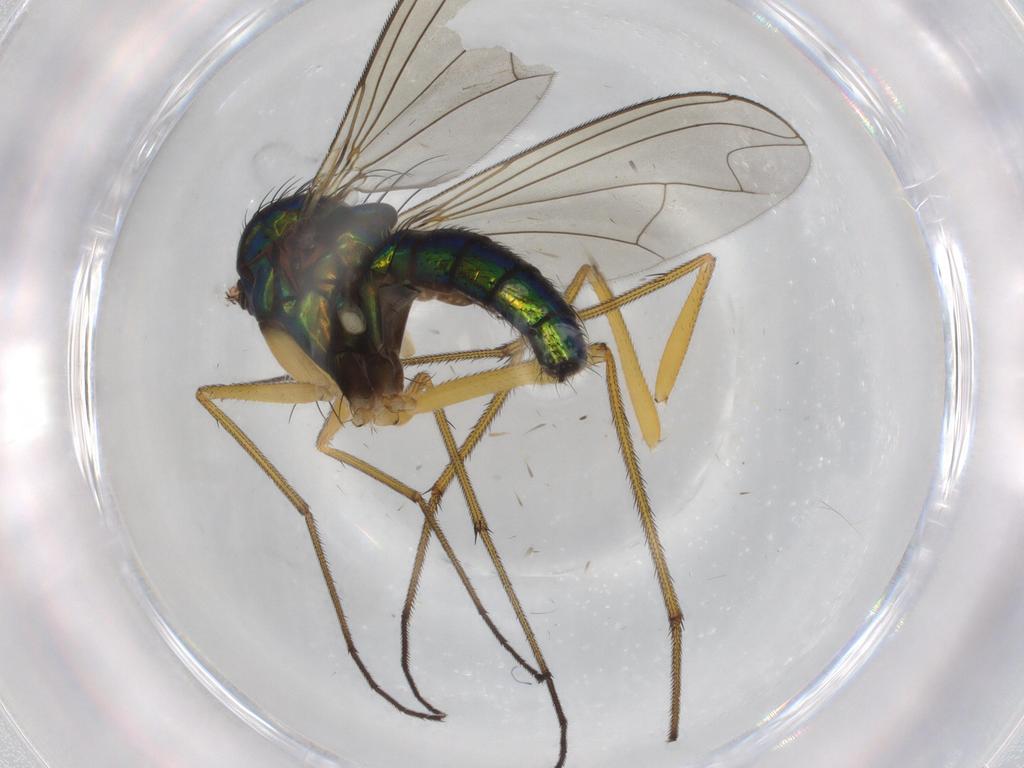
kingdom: Animalia
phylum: Arthropoda
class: Insecta
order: Diptera
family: Dolichopodidae
